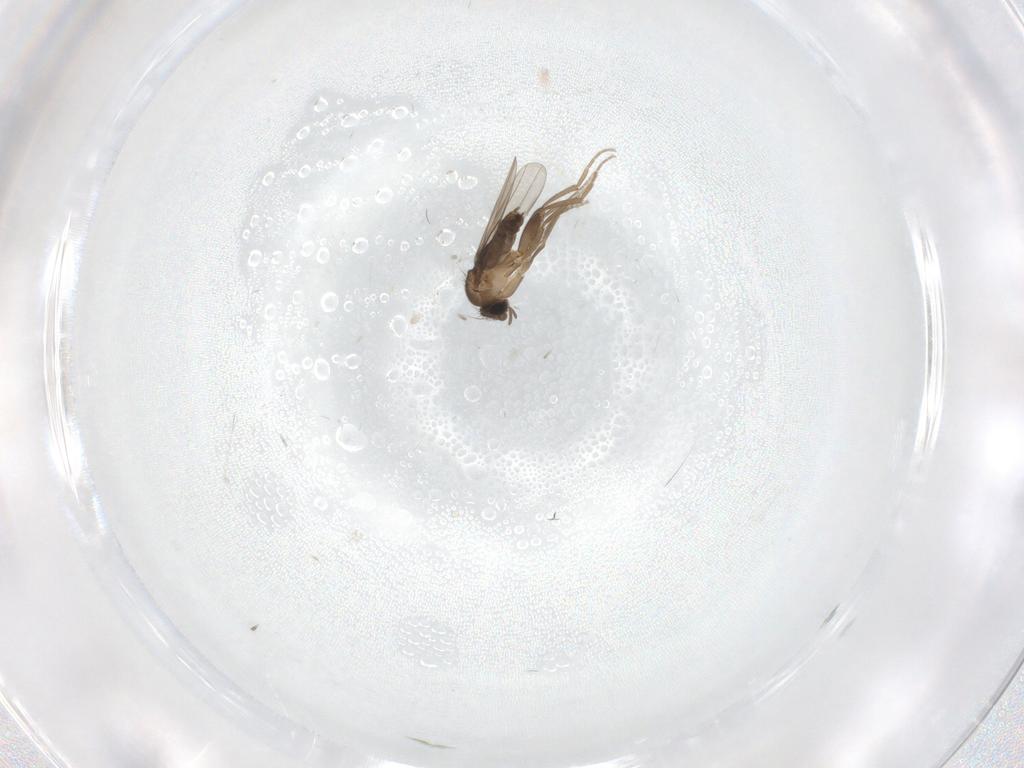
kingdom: Animalia
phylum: Arthropoda
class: Insecta
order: Diptera
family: Cecidomyiidae
